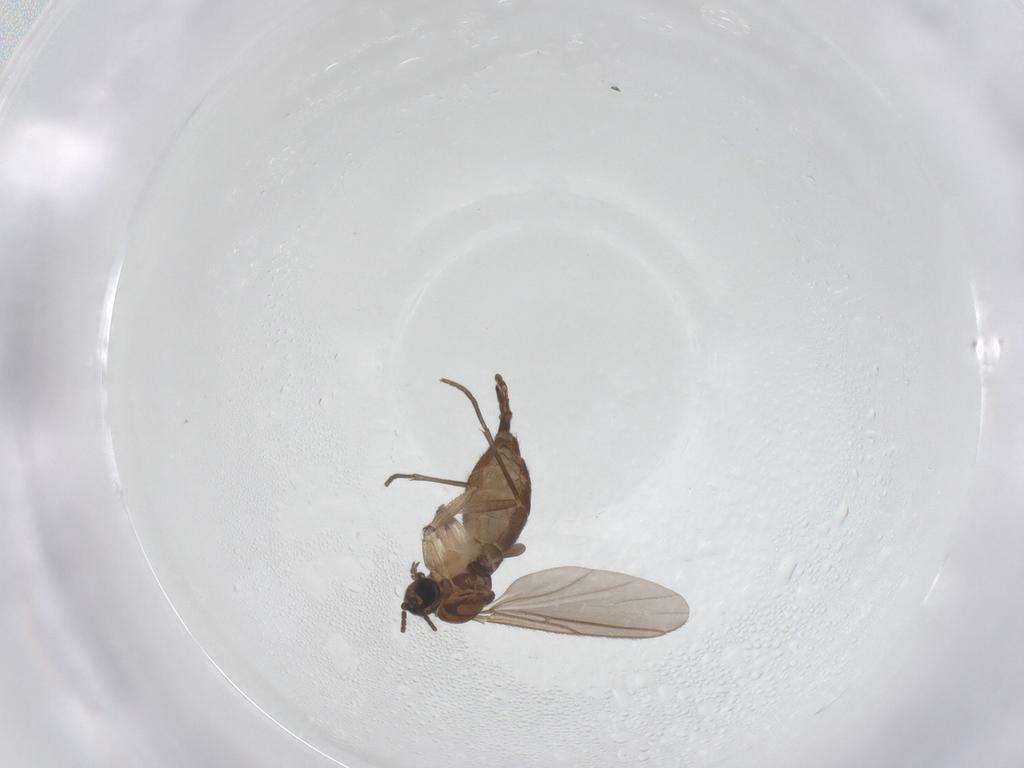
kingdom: Animalia
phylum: Arthropoda
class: Insecta
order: Diptera
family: Sciaridae
